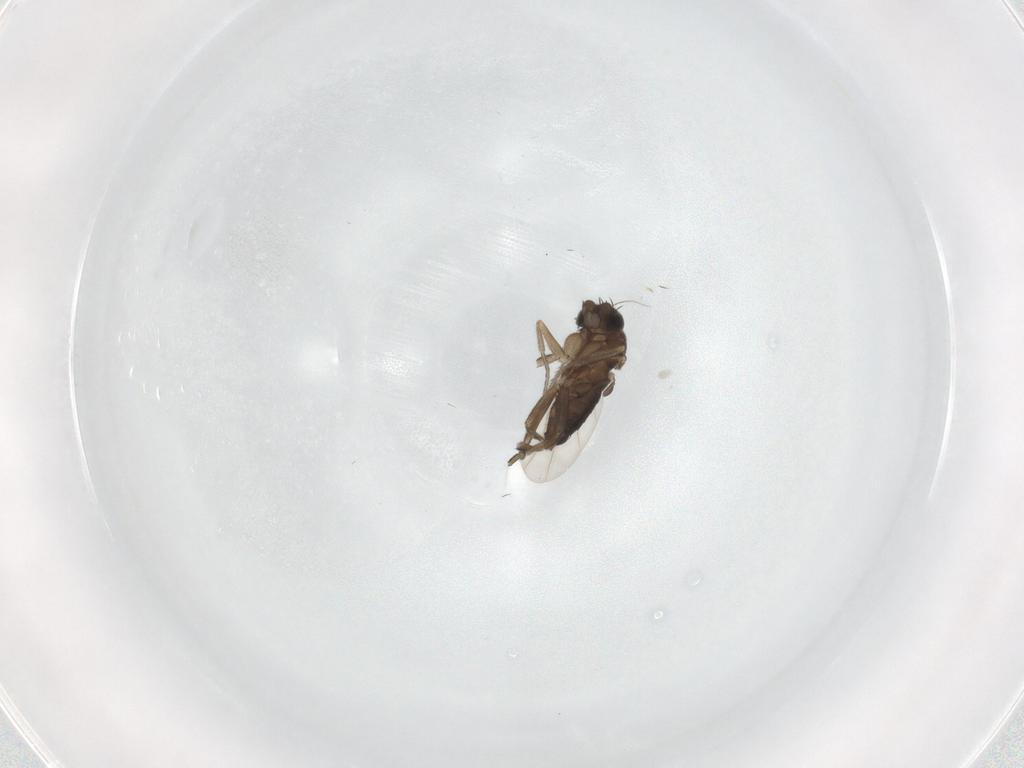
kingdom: Animalia
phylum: Arthropoda
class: Insecta
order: Diptera
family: Phoridae
